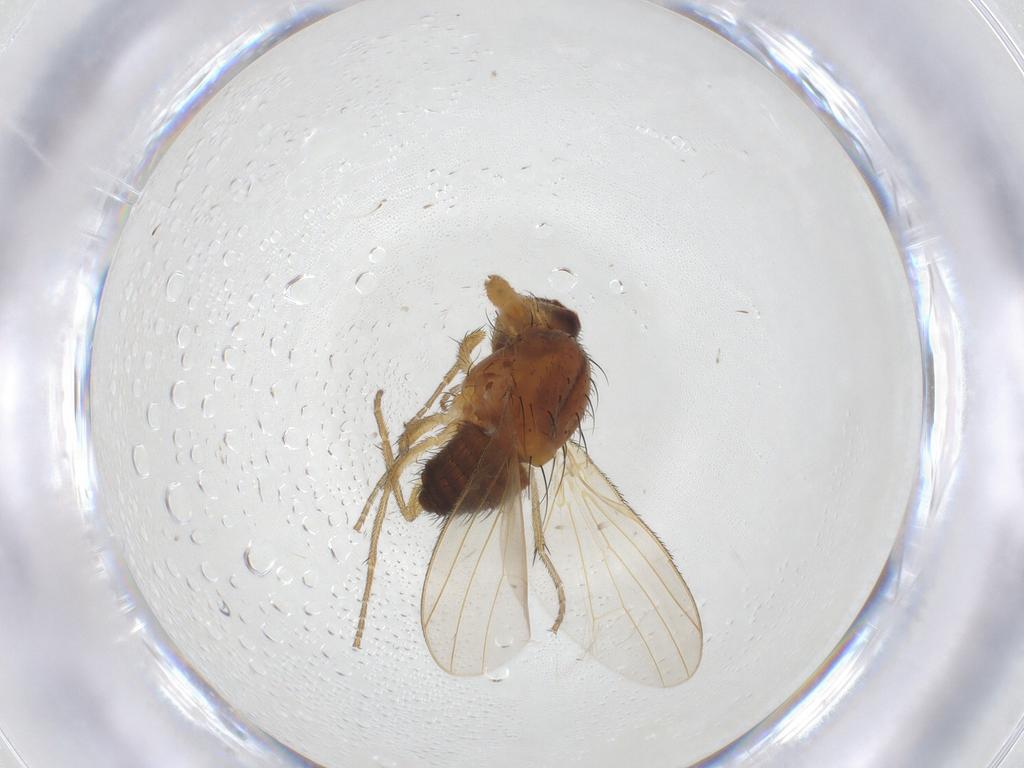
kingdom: Animalia
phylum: Arthropoda
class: Insecta
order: Diptera
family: Heleomyzidae
